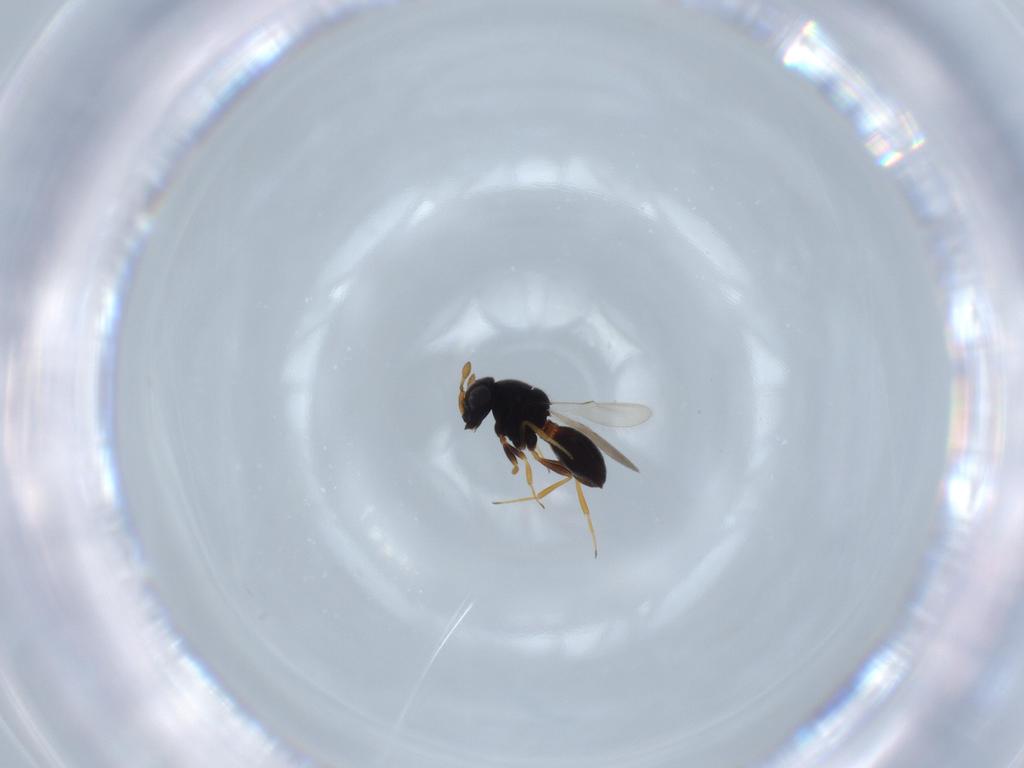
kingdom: Animalia
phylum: Arthropoda
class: Insecta
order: Hymenoptera
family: Scelionidae
